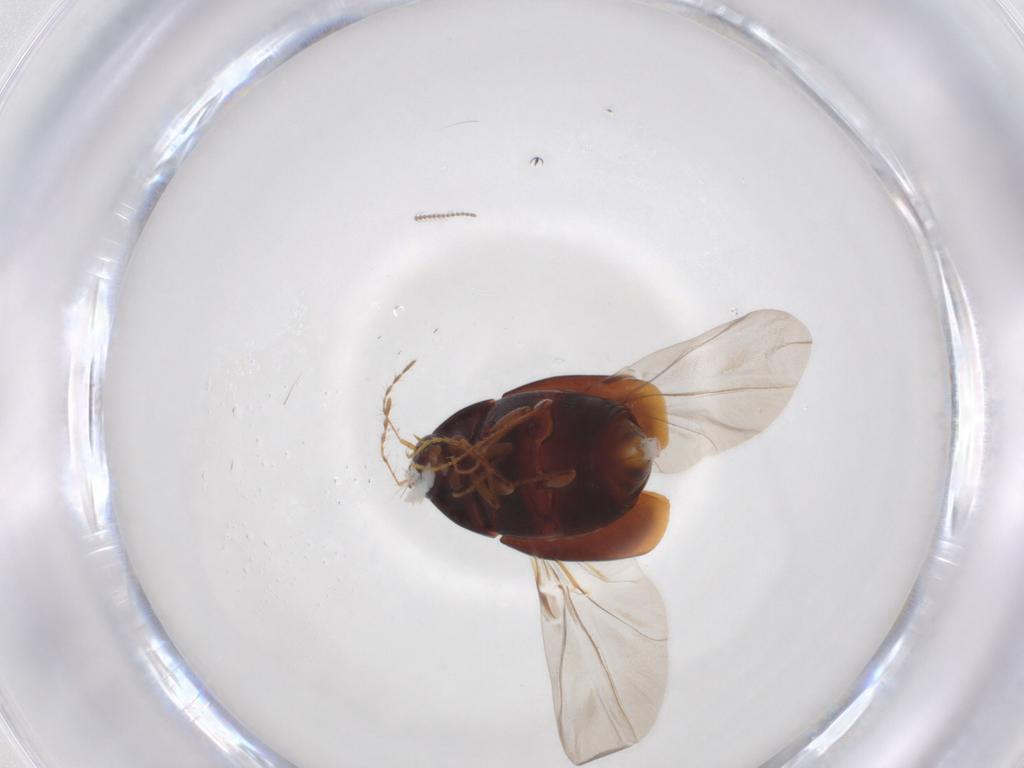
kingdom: Animalia
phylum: Arthropoda
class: Insecta
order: Coleoptera
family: Staphylinidae
